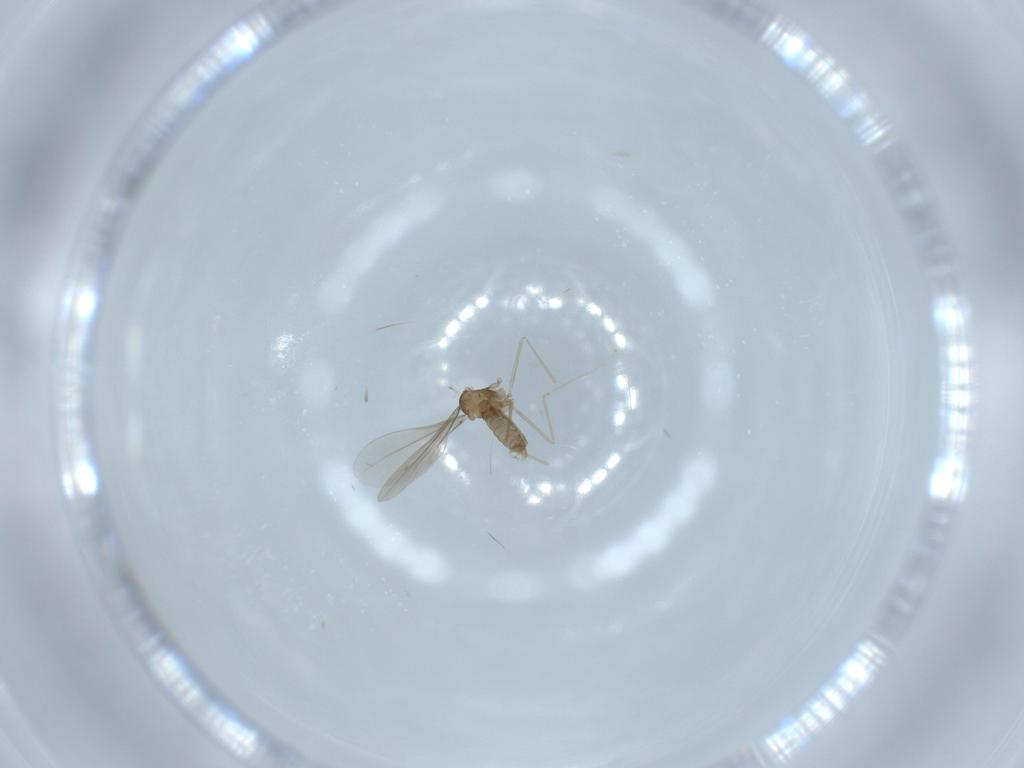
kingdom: Animalia
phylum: Arthropoda
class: Insecta
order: Diptera
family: Cecidomyiidae
